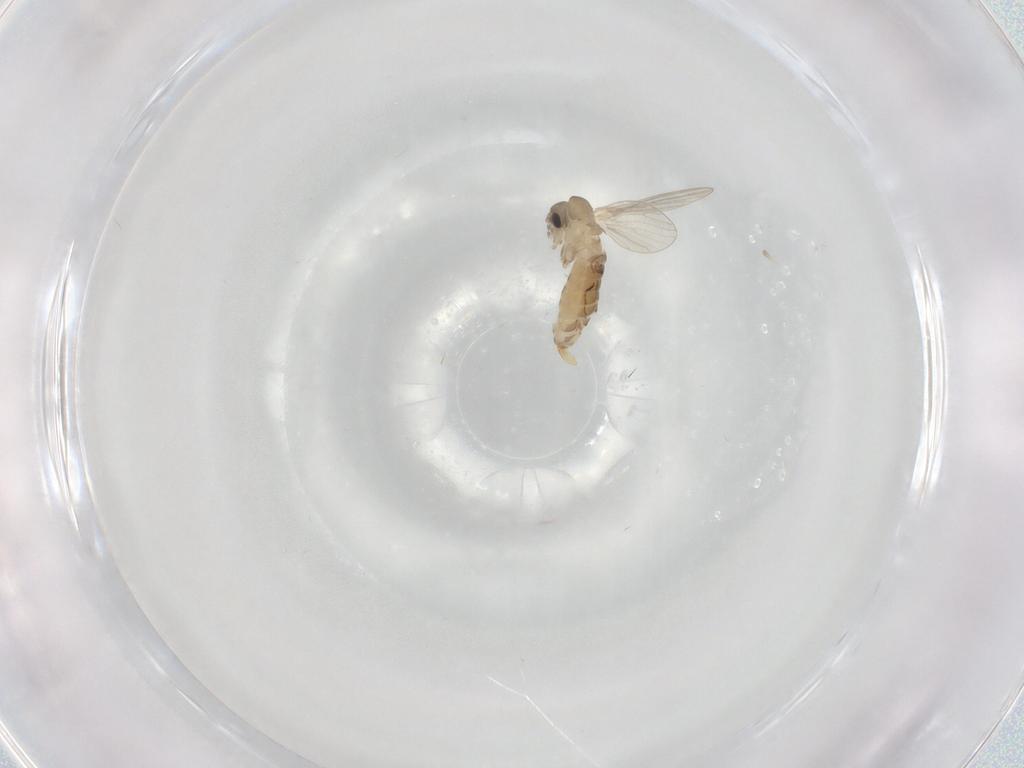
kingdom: Animalia
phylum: Arthropoda
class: Insecta
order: Diptera
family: Psychodidae
